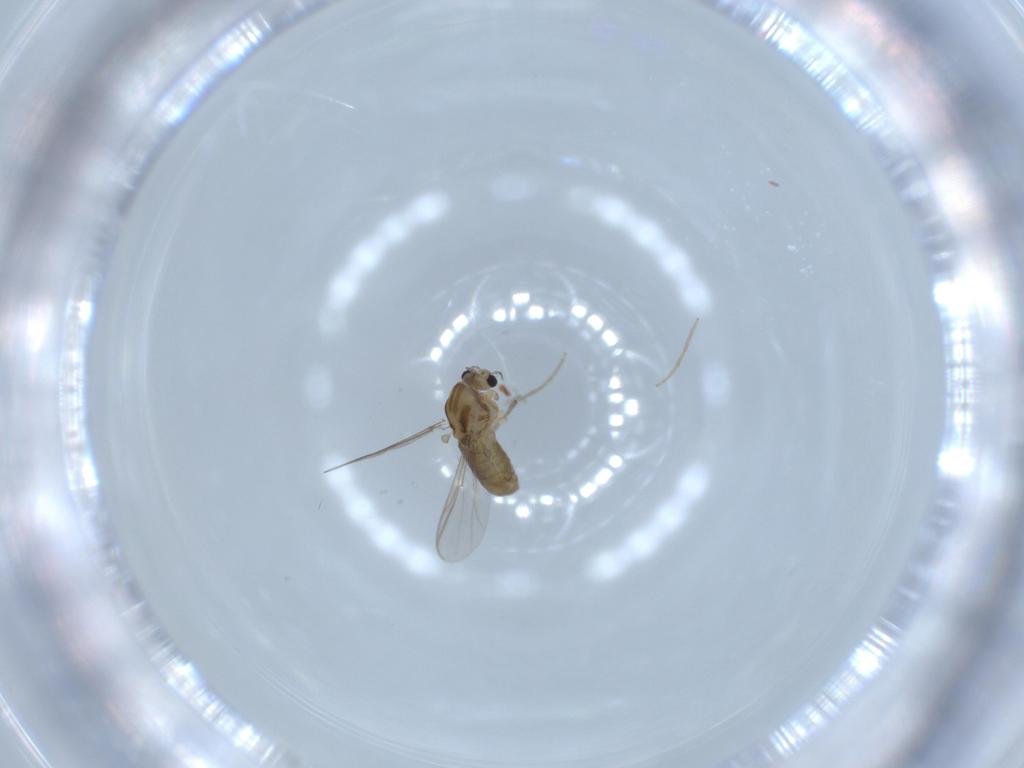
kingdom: Animalia
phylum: Arthropoda
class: Insecta
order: Diptera
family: Chironomidae
